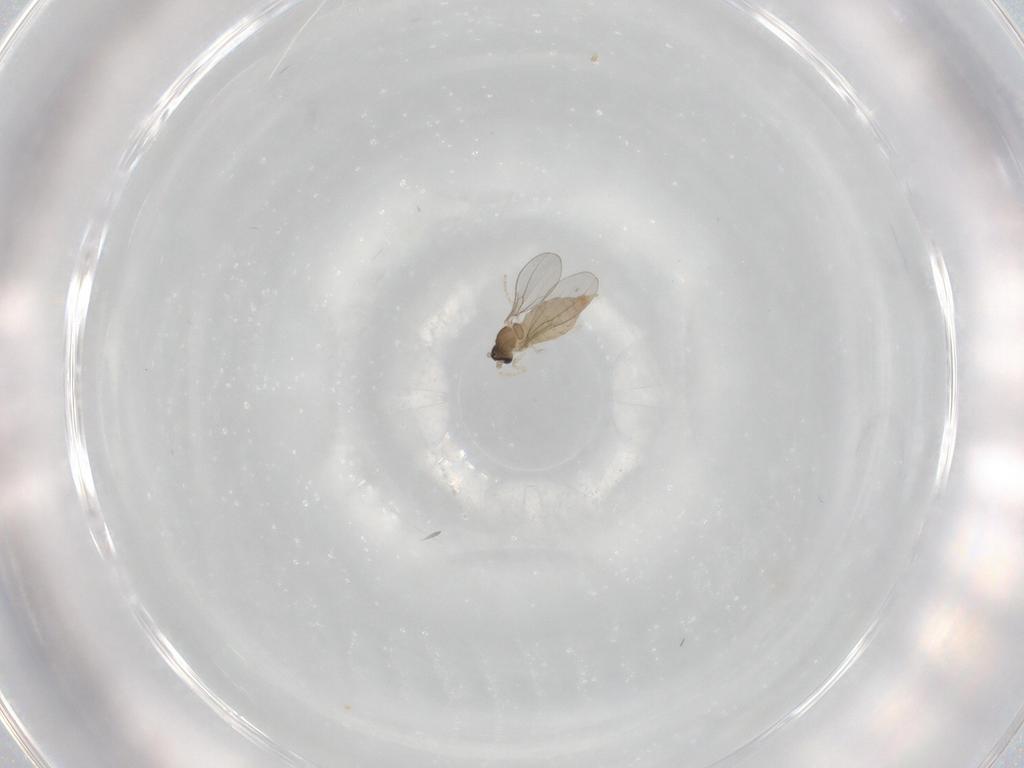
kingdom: Animalia
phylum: Arthropoda
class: Insecta
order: Diptera
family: Cecidomyiidae
